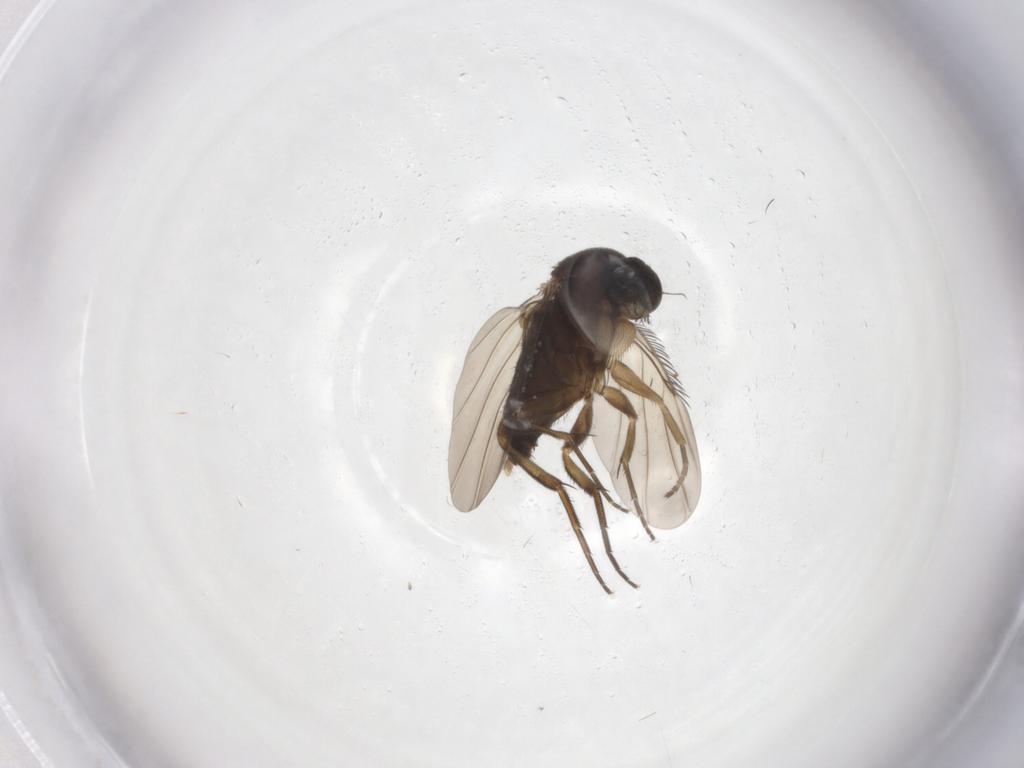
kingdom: Animalia
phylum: Arthropoda
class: Insecta
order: Diptera
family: Phoridae
